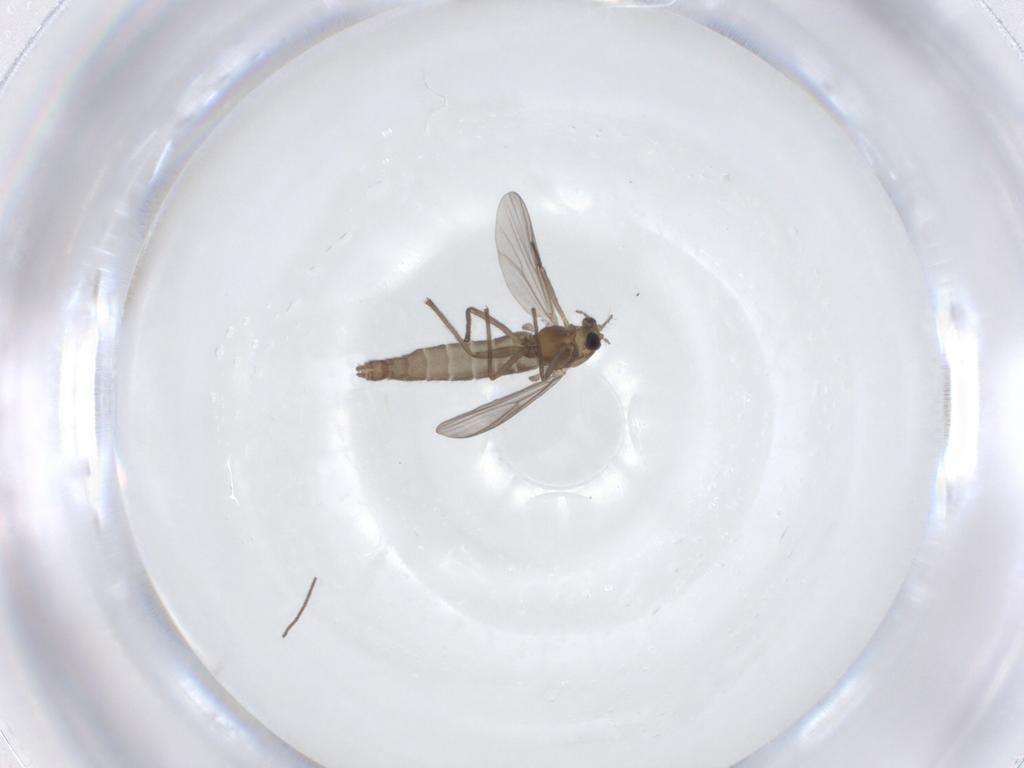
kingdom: Animalia
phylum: Arthropoda
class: Insecta
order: Diptera
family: Chironomidae
